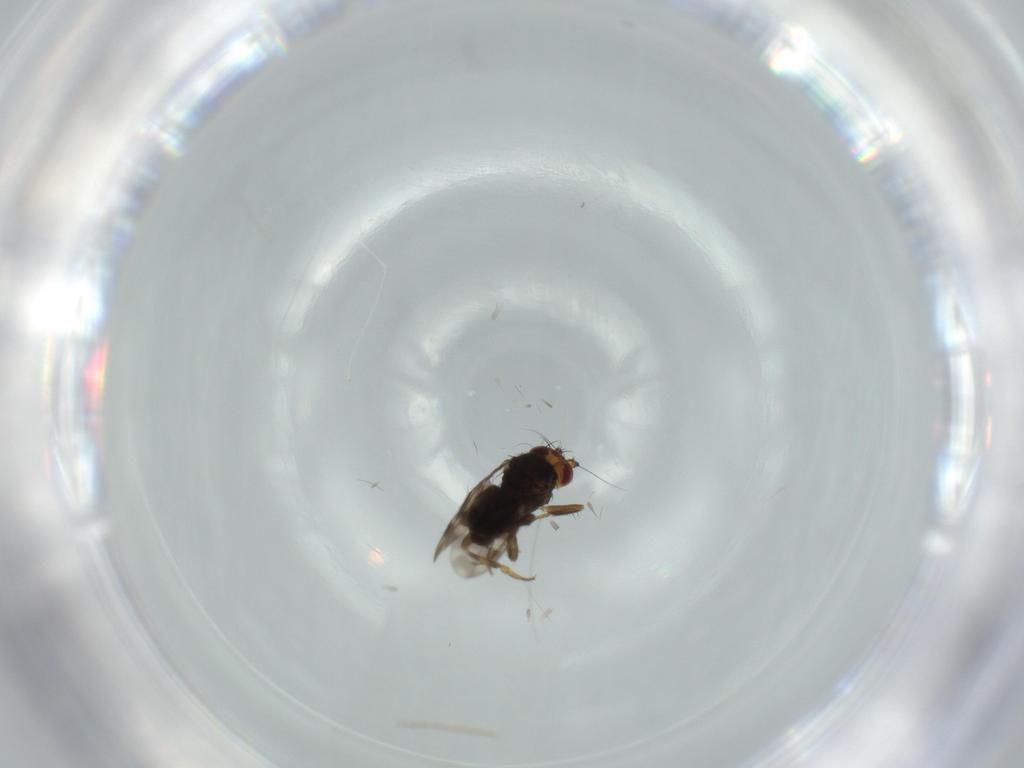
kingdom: Animalia
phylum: Arthropoda
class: Insecta
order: Diptera
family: Sphaeroceridae
